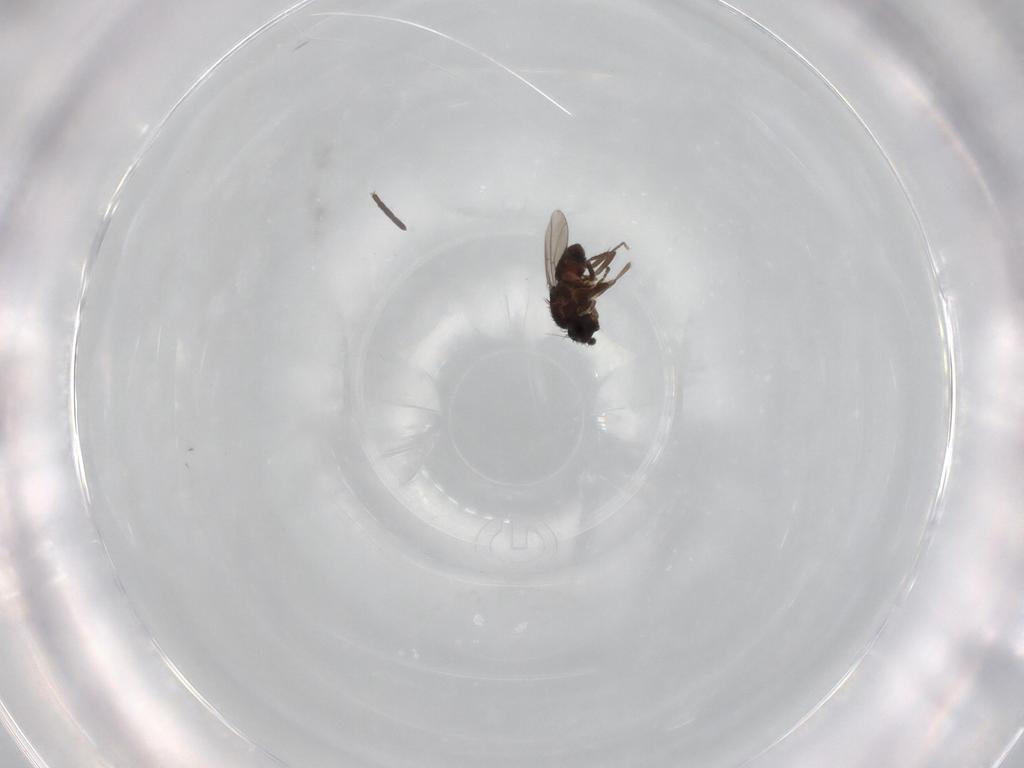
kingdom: Animalia
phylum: Arthropoda
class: Insecta
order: Diptera
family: Sciaridae
